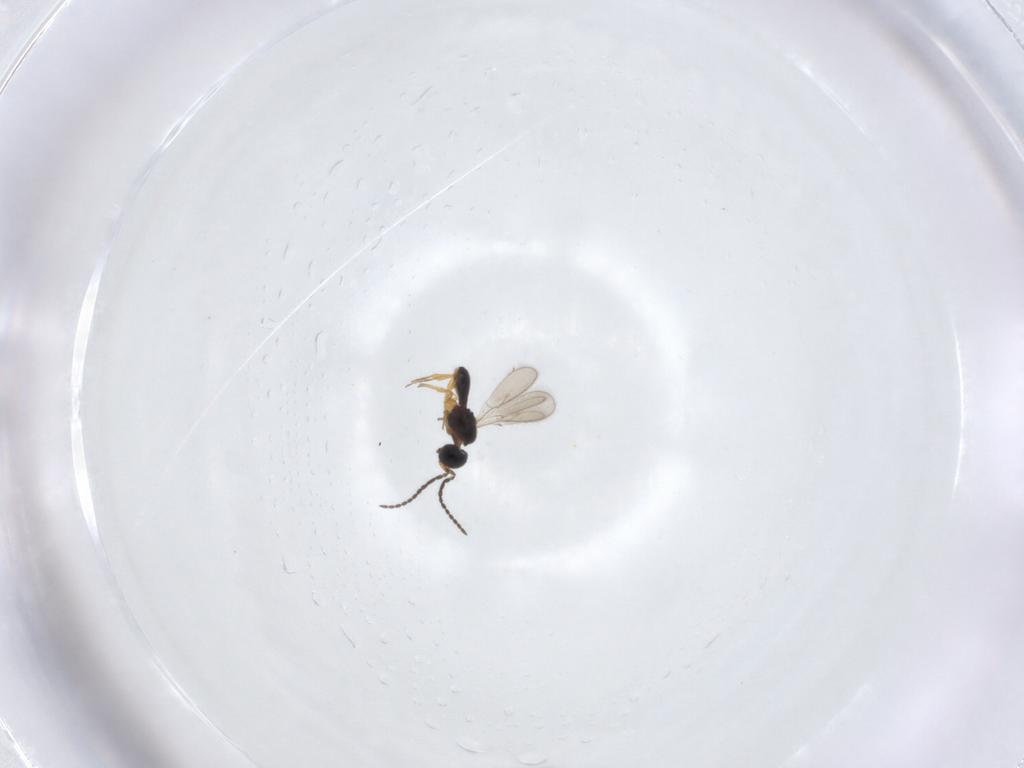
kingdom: Animalia
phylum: Arthropoda
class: Insecta
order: Hymenoptera
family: Scelionidae
